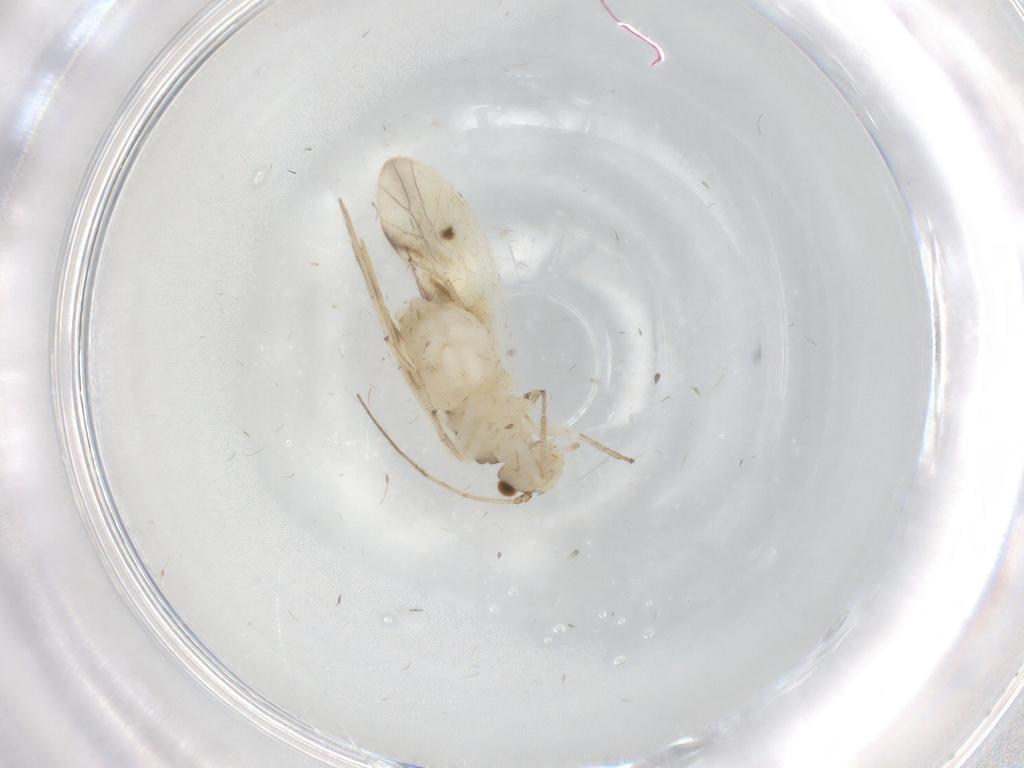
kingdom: Animalia
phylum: Arthropoda
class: Insecta
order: Psocodea
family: Caeciliusidae
